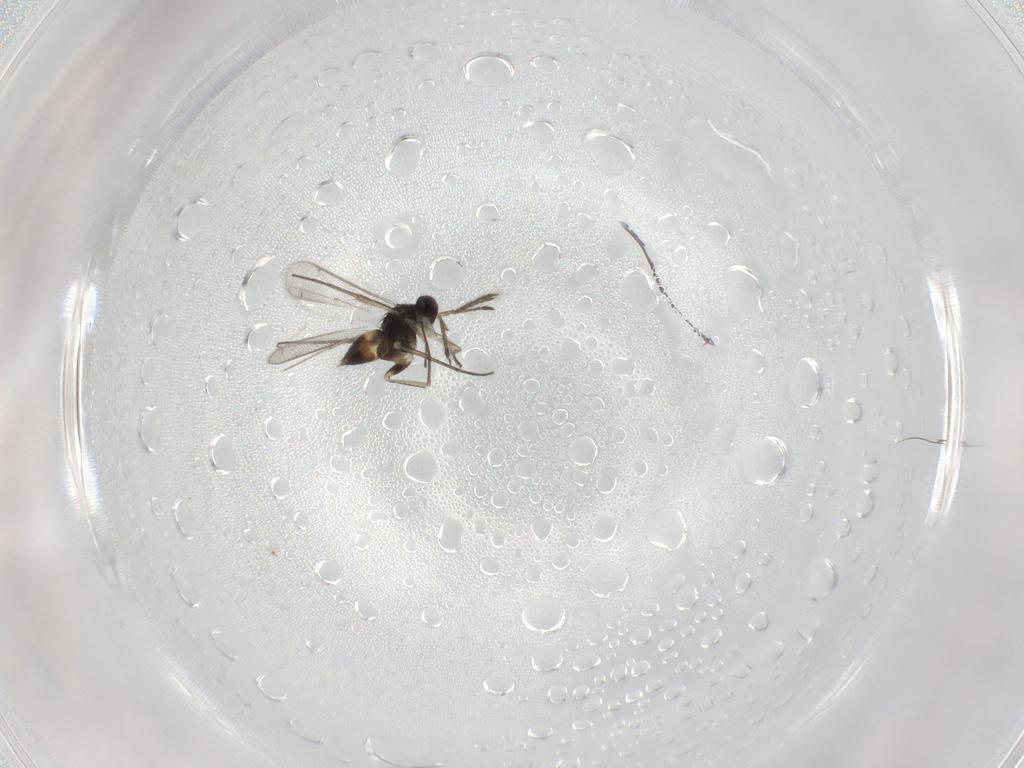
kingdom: Animalia
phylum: Arthropoda
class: Insecta
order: Hymenoptera
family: Eulophidae
